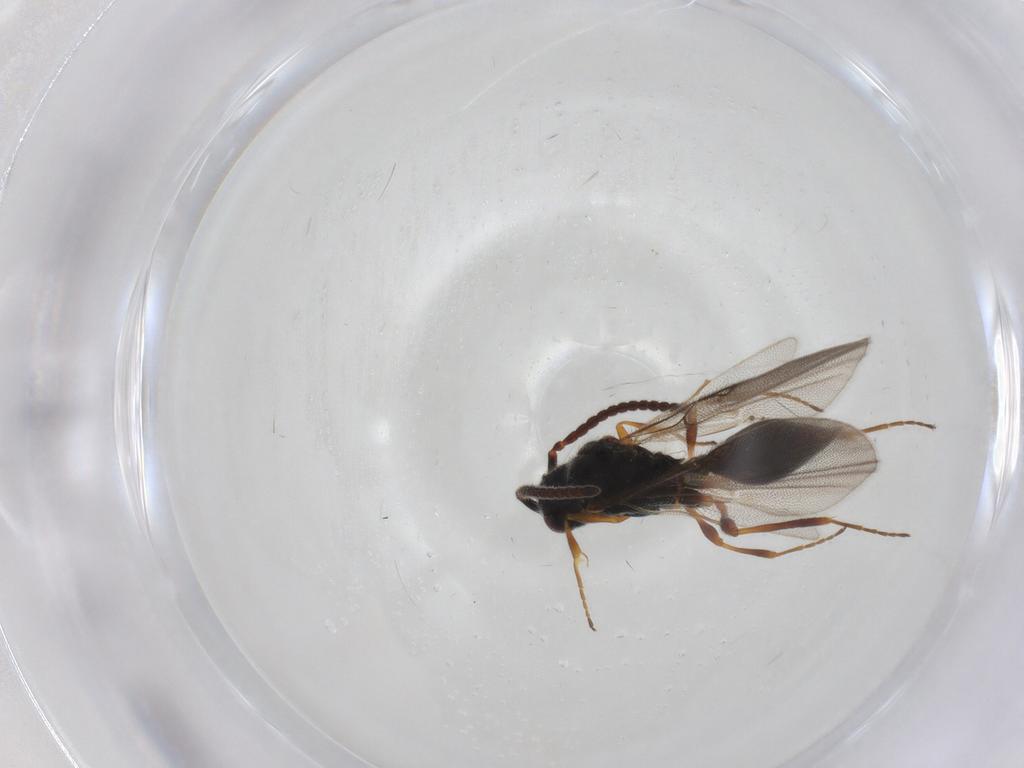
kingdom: Animalia
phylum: Arthropoda
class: Insecta
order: Hymenoptera
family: Diapriidae
